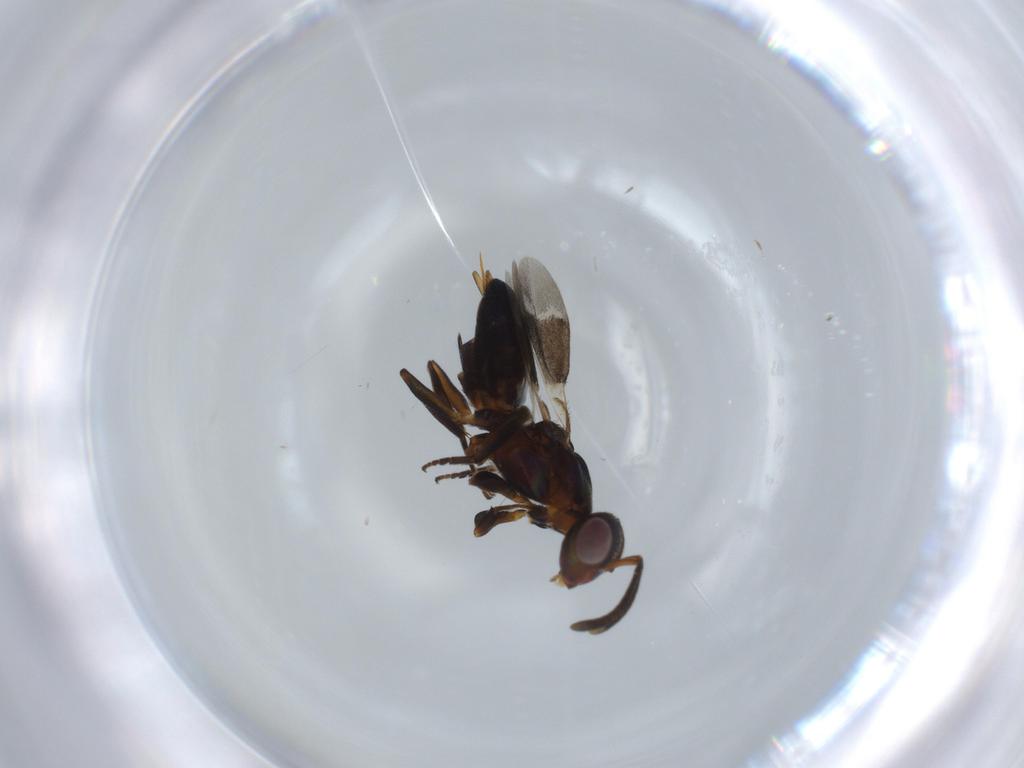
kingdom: Animalia
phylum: Arthropoda
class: Insecta
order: Hymenoptera
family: Eupelmidae
